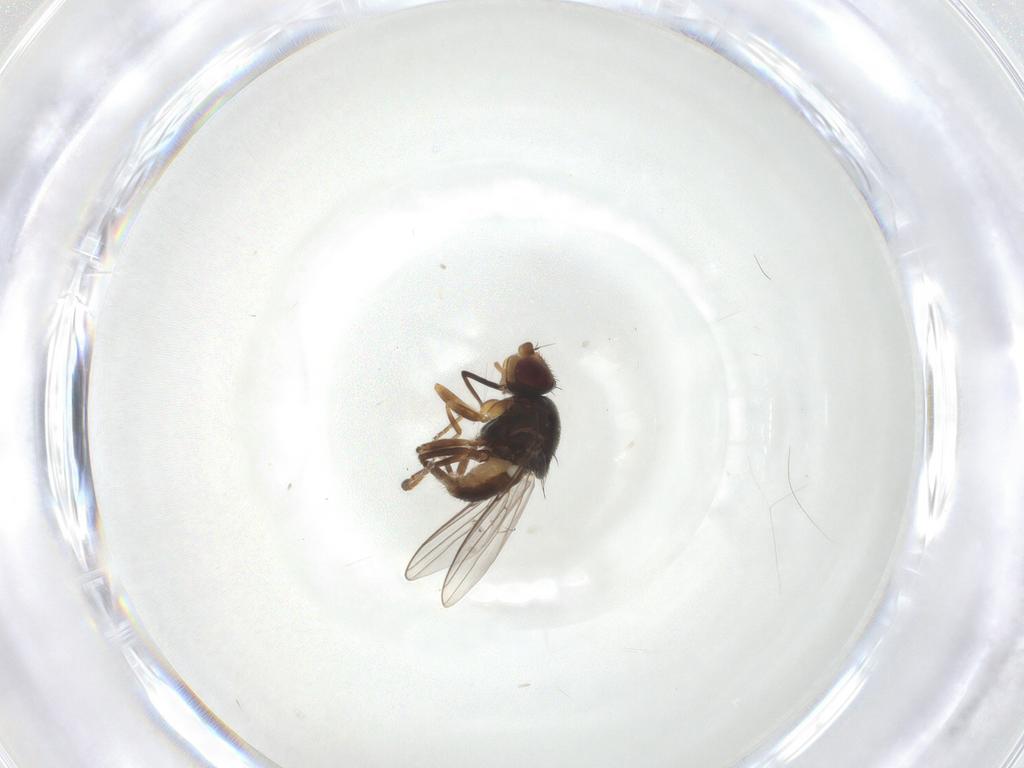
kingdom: Animalia
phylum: Arthropoda
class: Insecta
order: Diptera
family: Chloropidae
